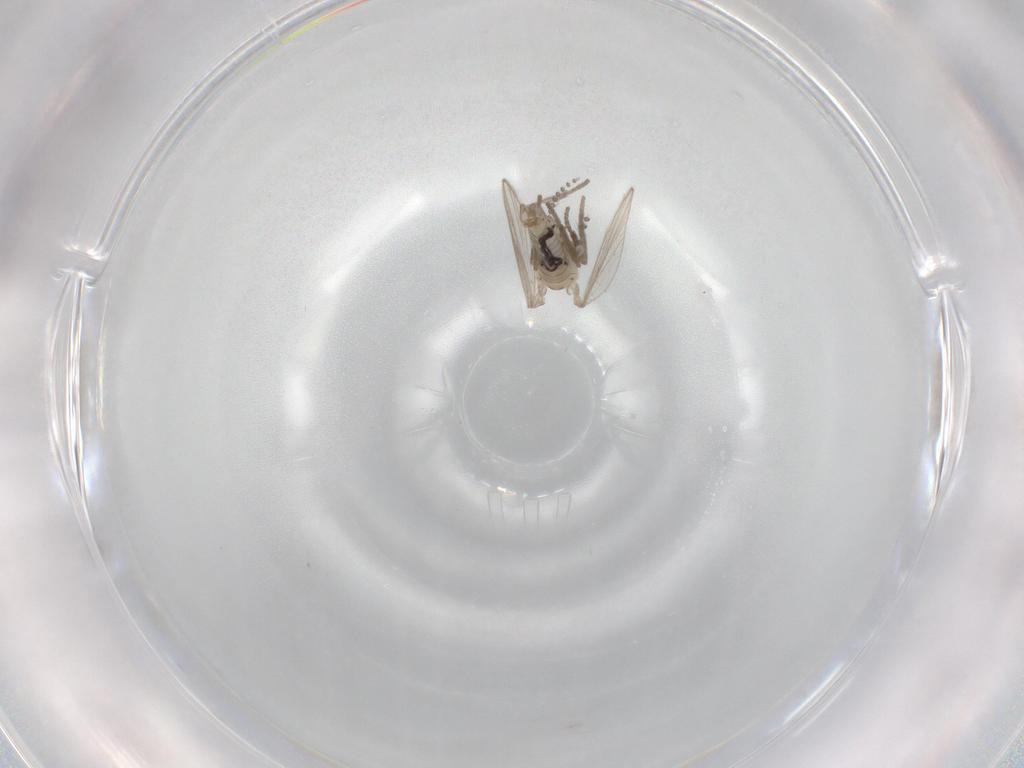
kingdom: Animalia
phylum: Arthropoda
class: Insecta
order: Diptera
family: Psychodidae
